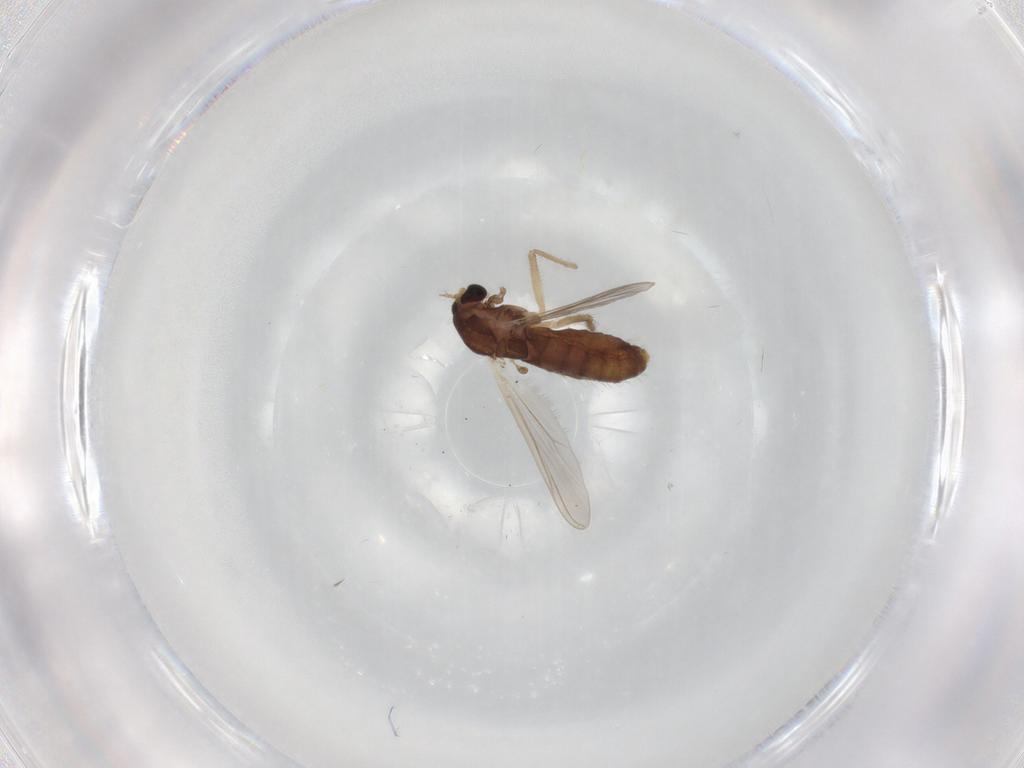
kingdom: Animalia
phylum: Arthropoda
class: Insecta
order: Diptera
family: Chironomidae
